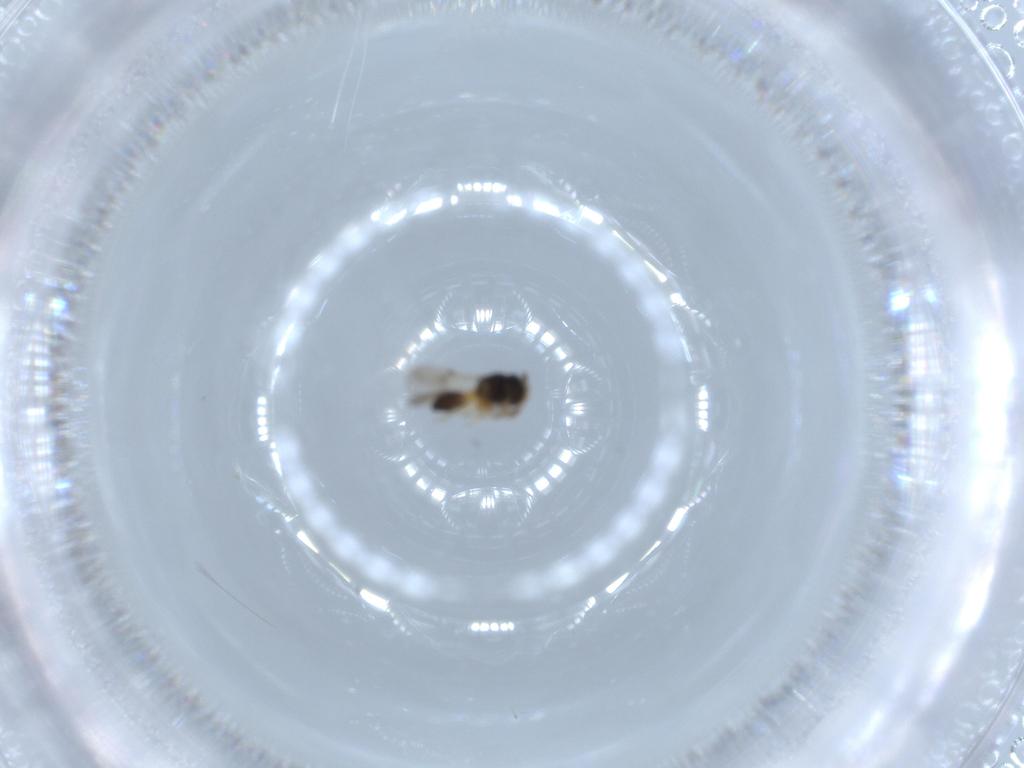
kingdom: Animalia
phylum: Arthropoda
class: Insecta
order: Hymenoptera
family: Scelionidae
